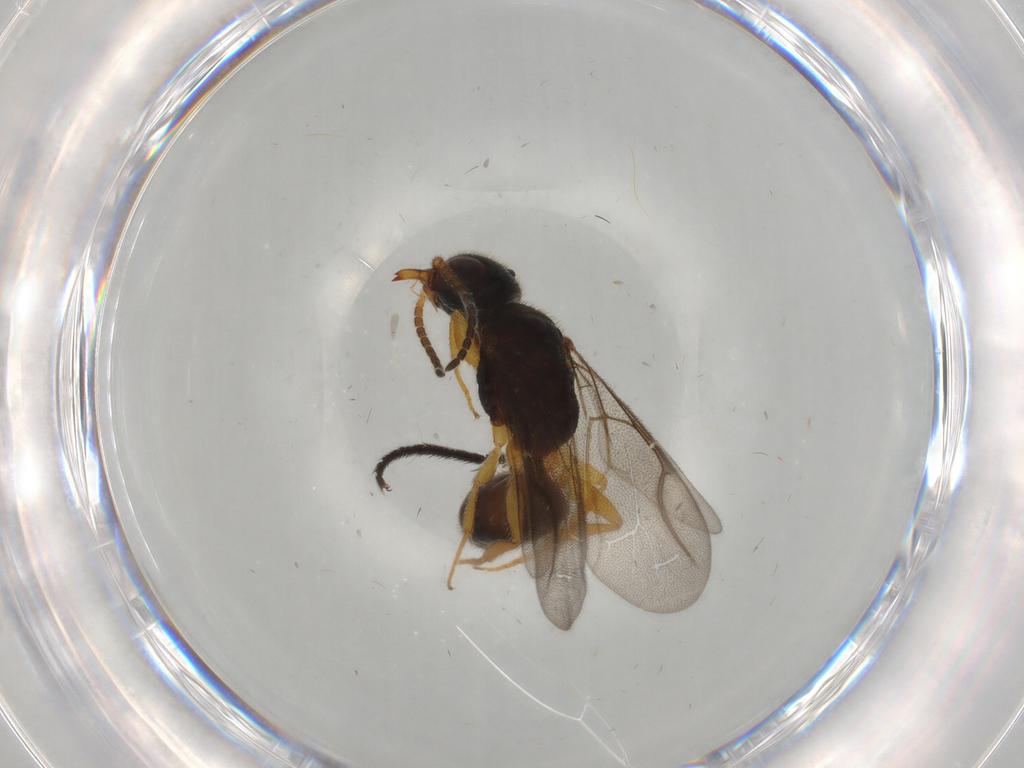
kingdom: Animalia
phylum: Arthropoda
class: Insecta
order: Hymenoptera
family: Bethylidae
